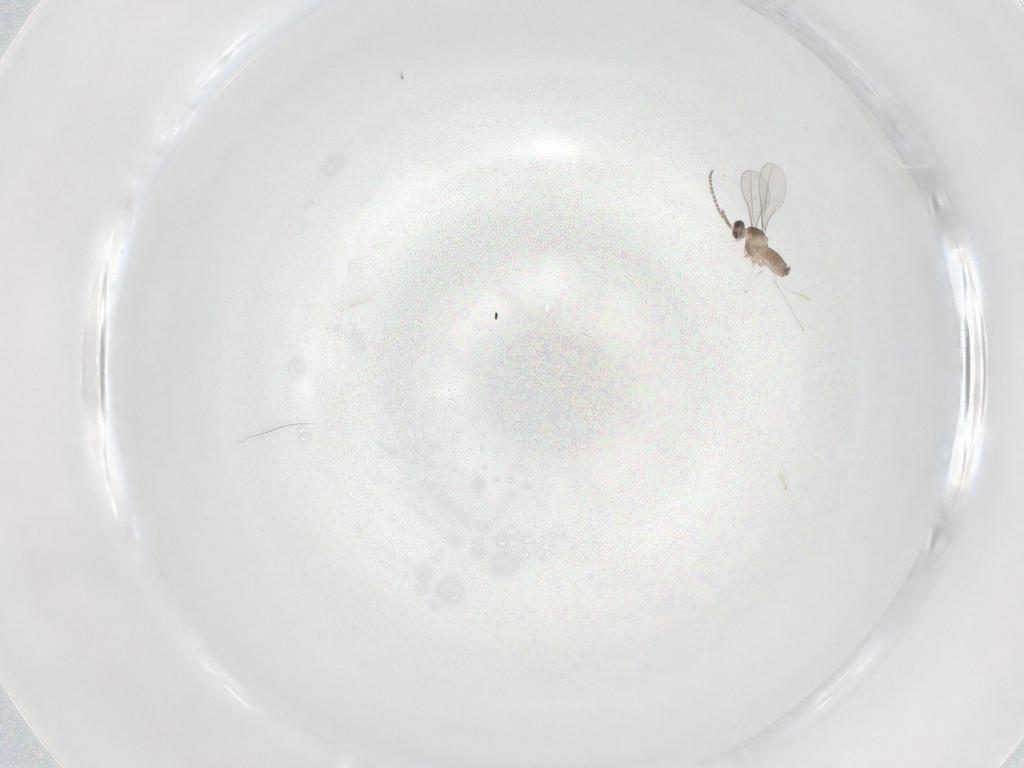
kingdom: Animalia
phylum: Arthropoda
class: Insecta
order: Diptera
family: Cecidomyiidae
